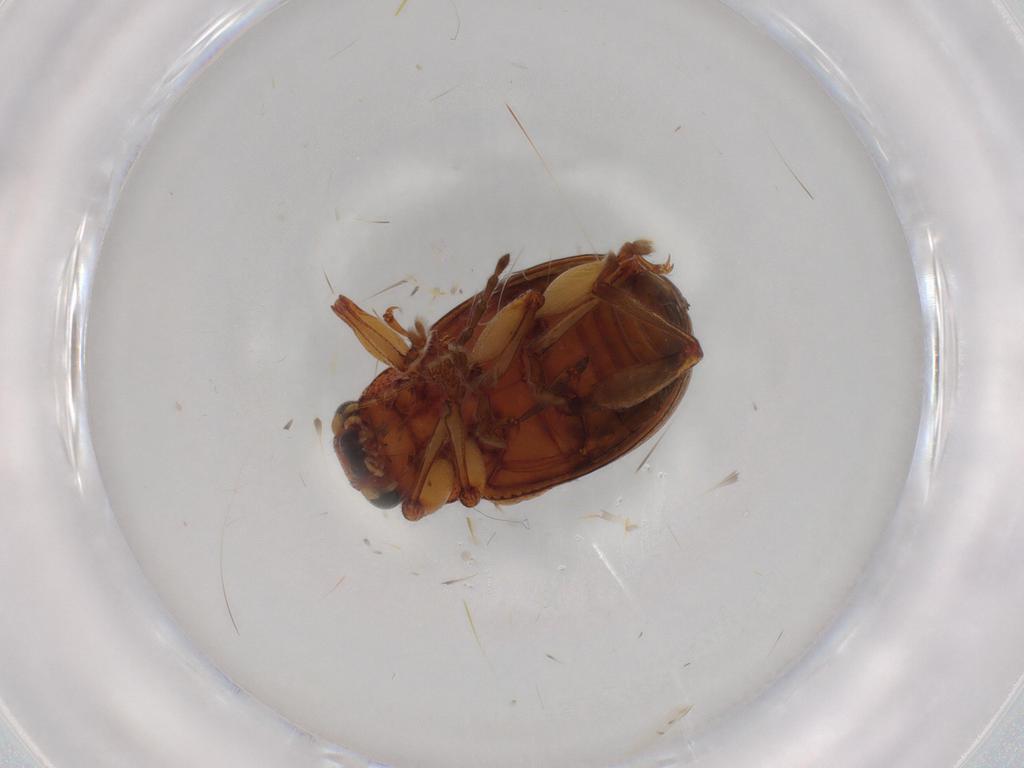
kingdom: Animalia
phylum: Arthropoda
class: Insecta
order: Coleoptera
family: Chrysomelidae
